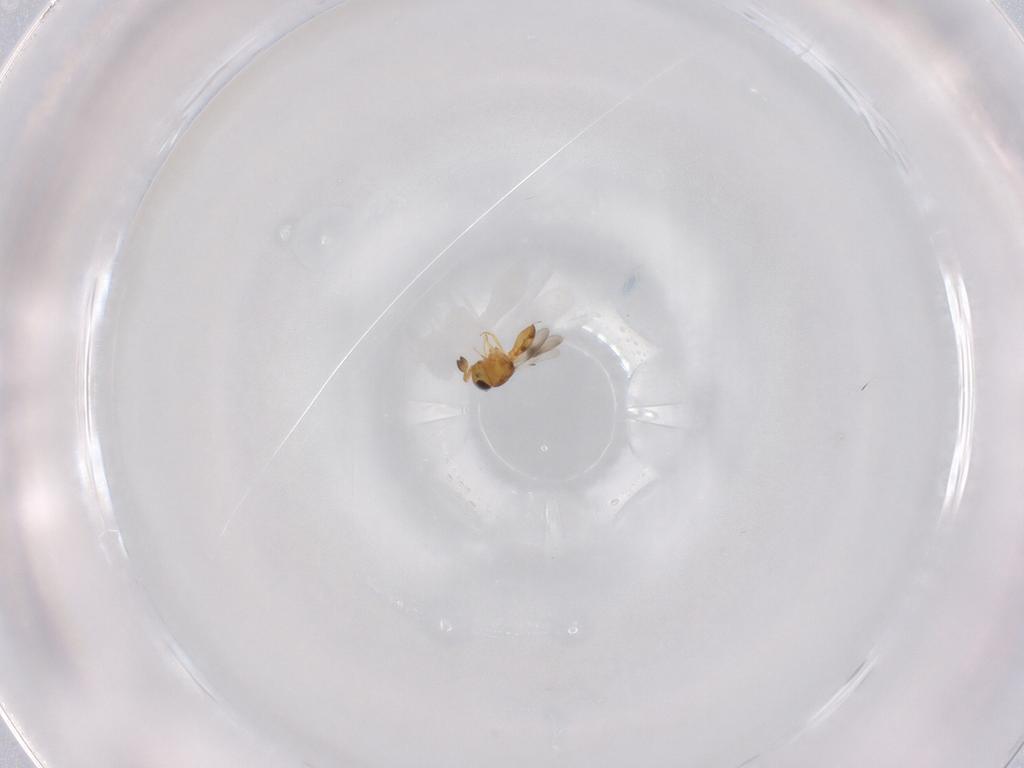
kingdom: Animalia
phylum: Arthropoda
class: Insecta
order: Hymenoptera
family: Scelionidae
